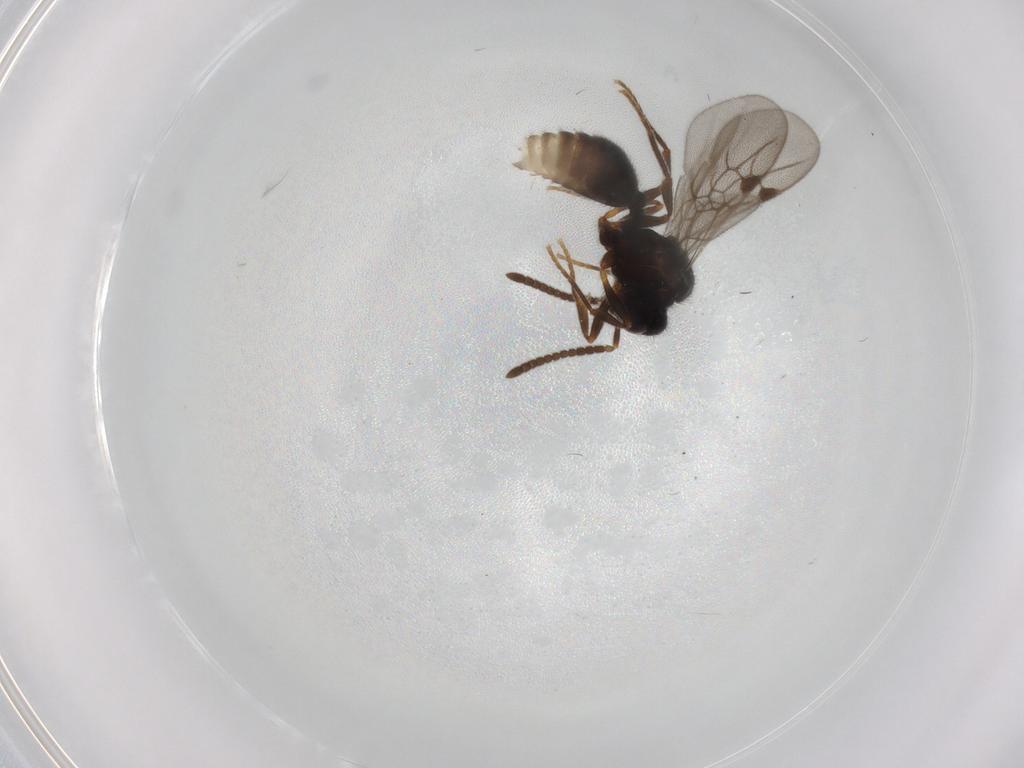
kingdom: Animalia
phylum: Arthropoda
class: Insecta
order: Hymenoptera
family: Formicidae
